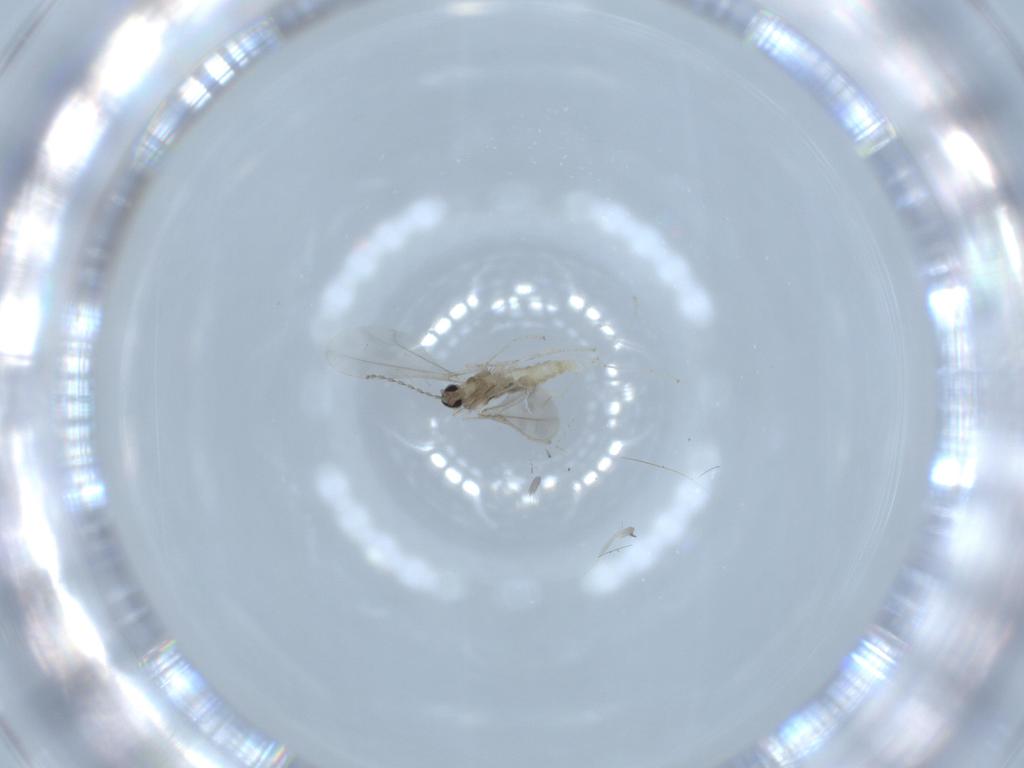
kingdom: Animalia
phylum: Arthropoda
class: Insecta
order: Diptera
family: Cecidomyiidae
